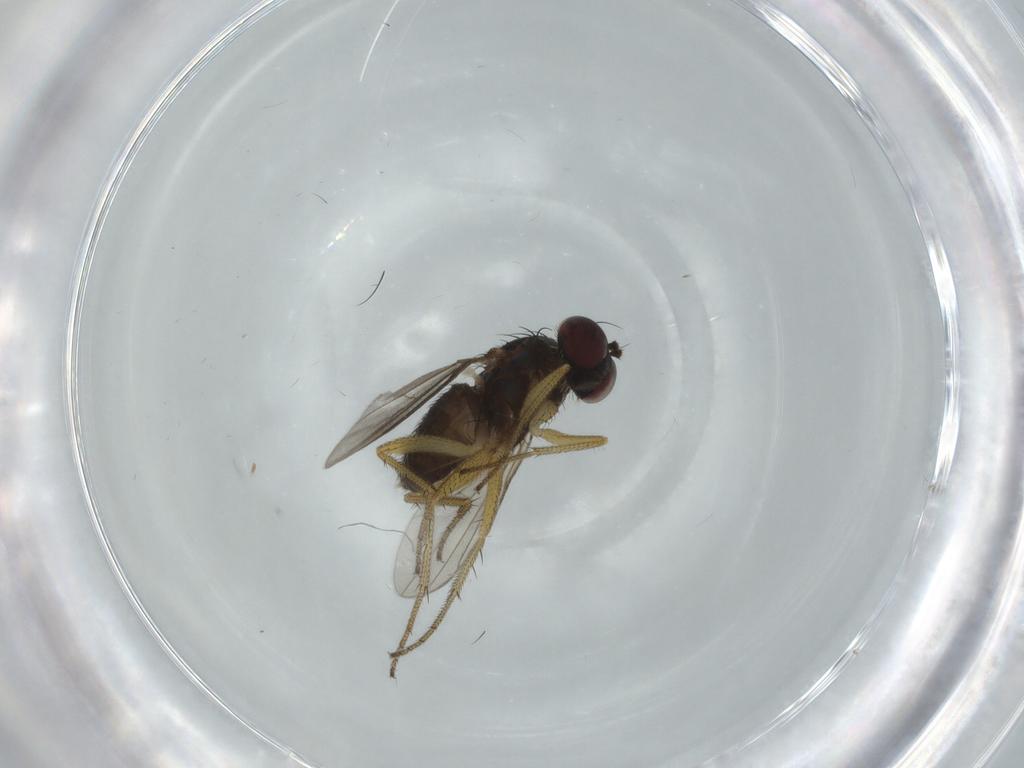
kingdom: Animalia
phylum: Arthropoda
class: Insecta
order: Diptera
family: Dolichopodidae
